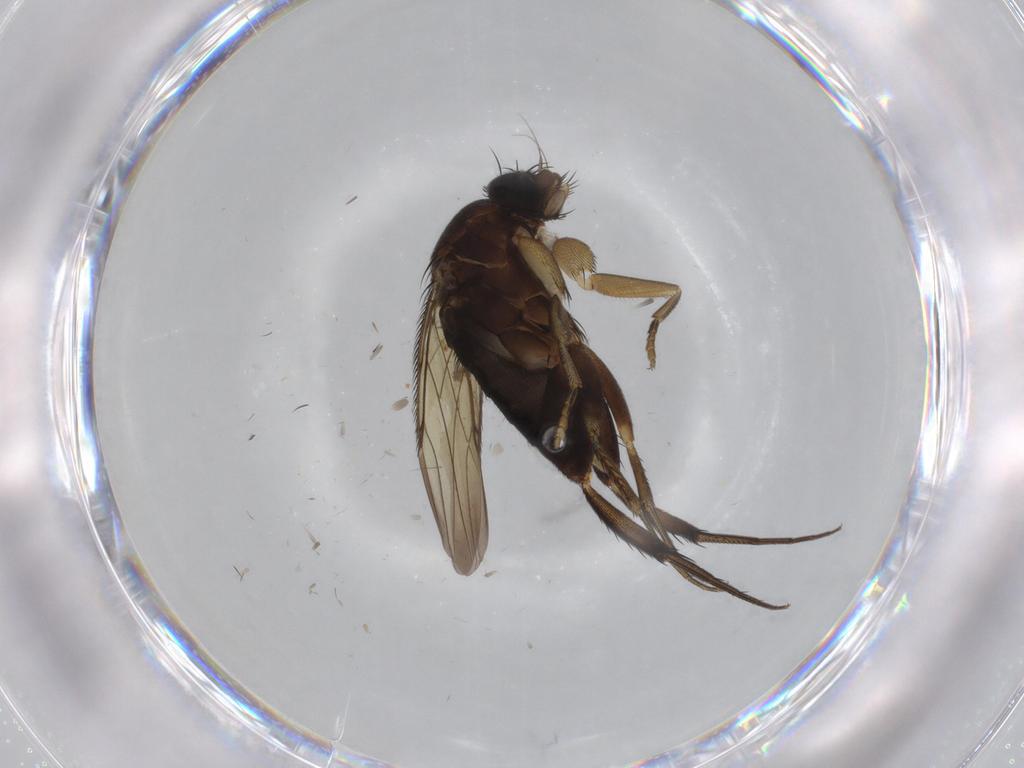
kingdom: Animalia
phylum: Arthropoda
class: Insecta
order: Diptera
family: Phoridae
